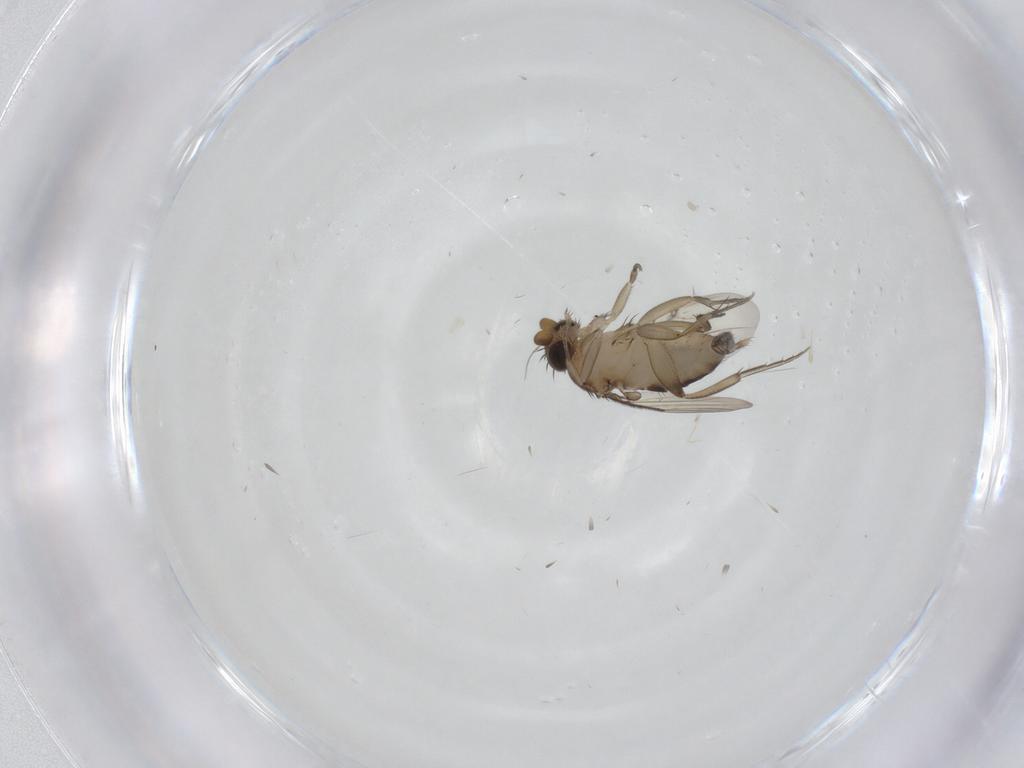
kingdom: Animalia
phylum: Arthropoda
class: Insecta
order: Diptera
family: Phoridae
